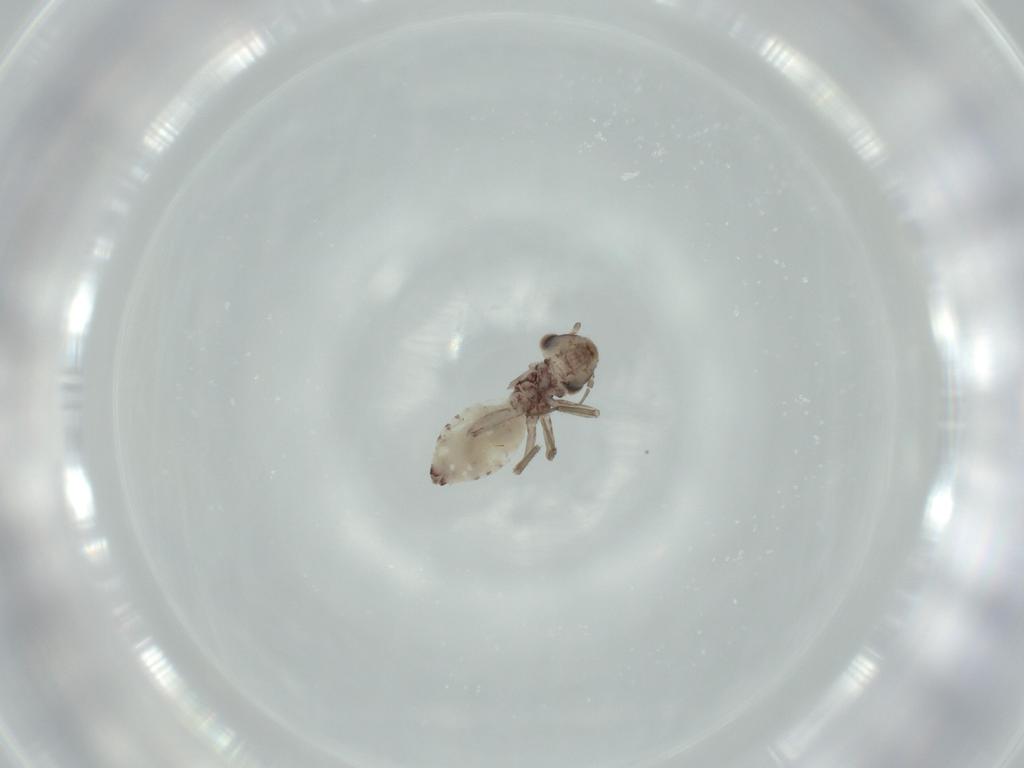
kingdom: Animalia
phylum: Arthropoda
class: Insecta
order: Psocodea
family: Lepidopsocidae
